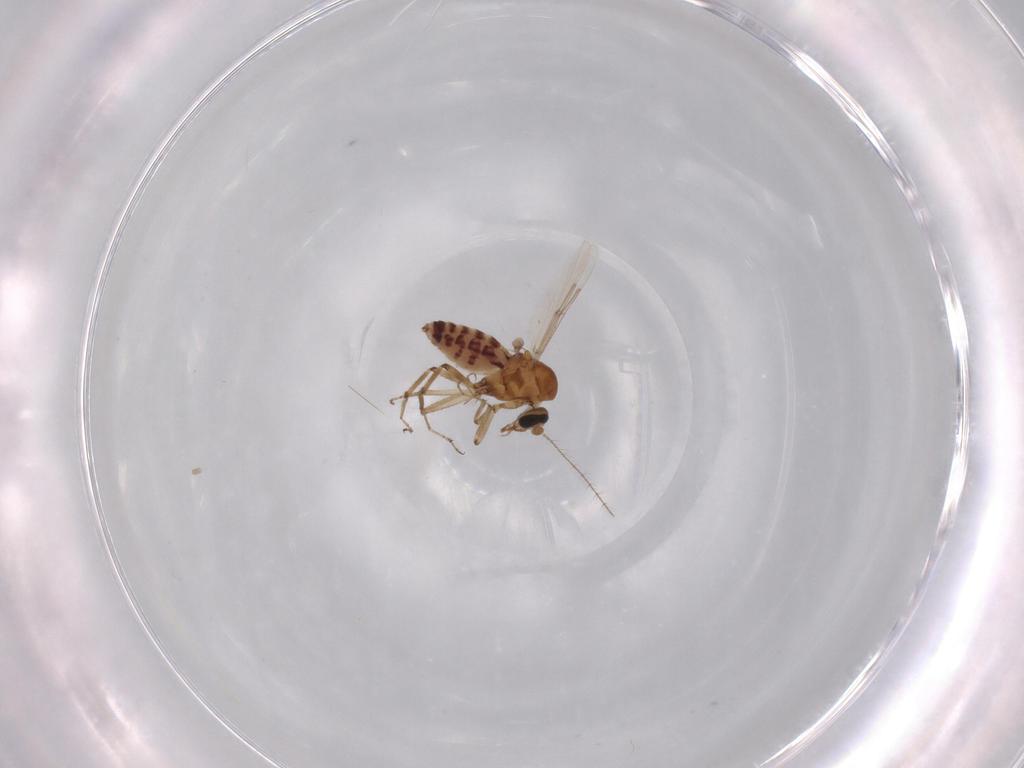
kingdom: Animalia
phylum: Arthropoda
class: Insecta
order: Diptera
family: Ceratopogonidae
